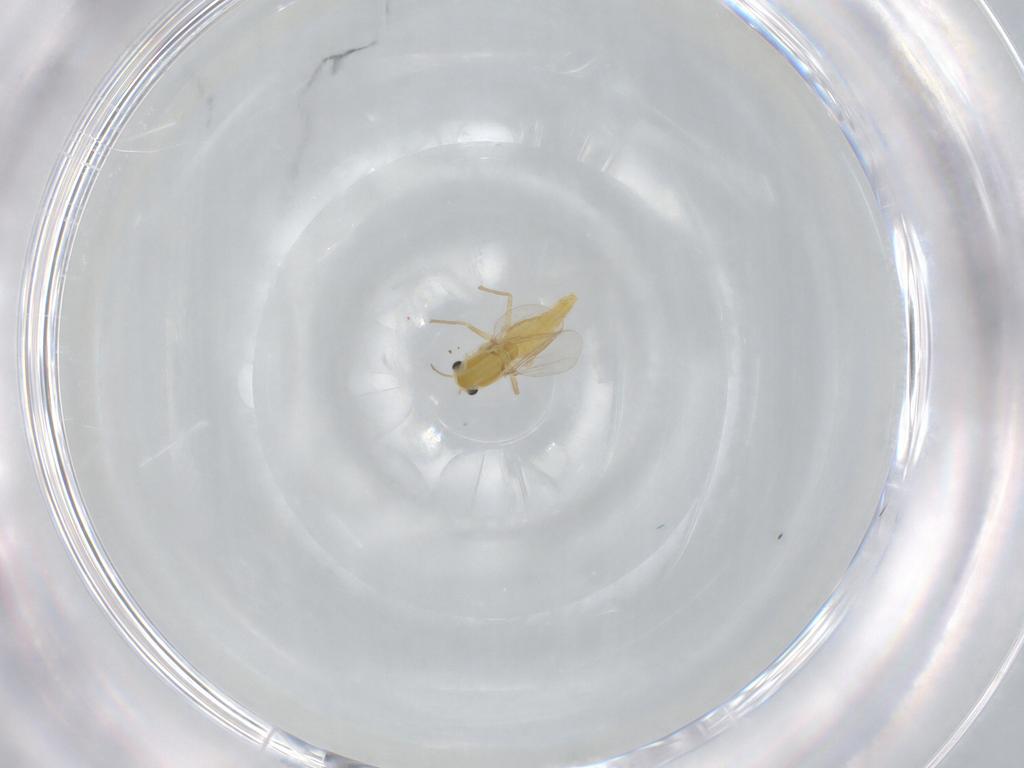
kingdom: Animalia
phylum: Arthropoda
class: Insecta
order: Diptera
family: Chironomidae
